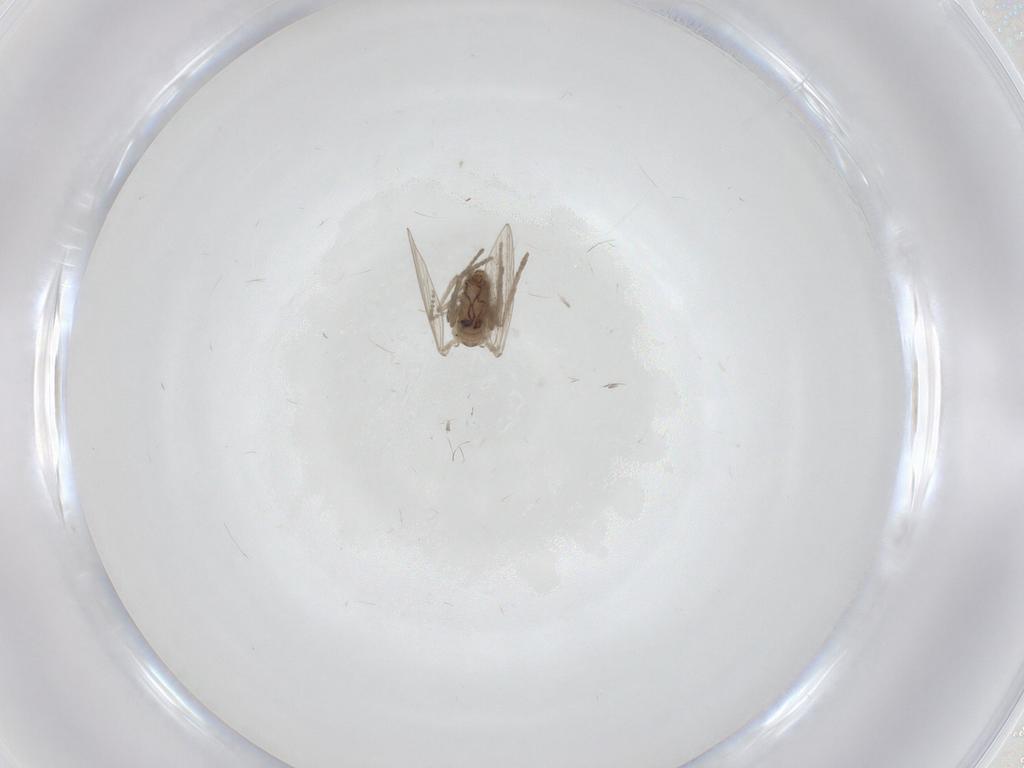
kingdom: Animalia
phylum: Arthropoda
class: Insecta
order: Diptera
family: Psychodidae
